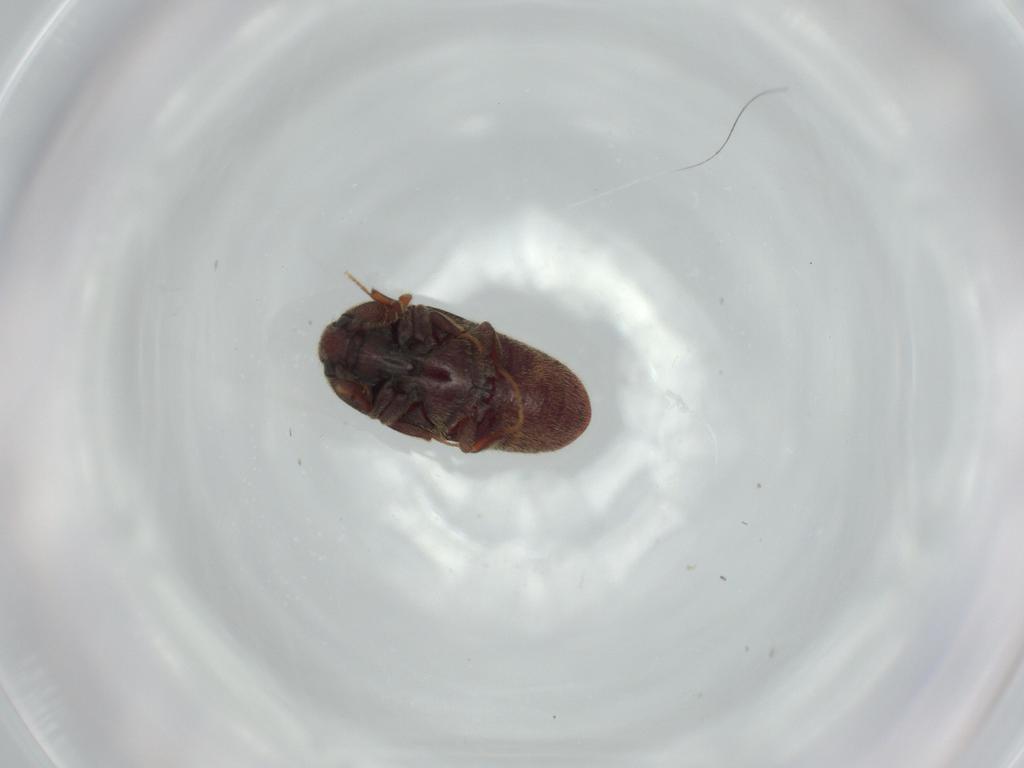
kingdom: Animalia
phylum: Arthropoda
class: Insecta
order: Coleoptera
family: Throscidae
